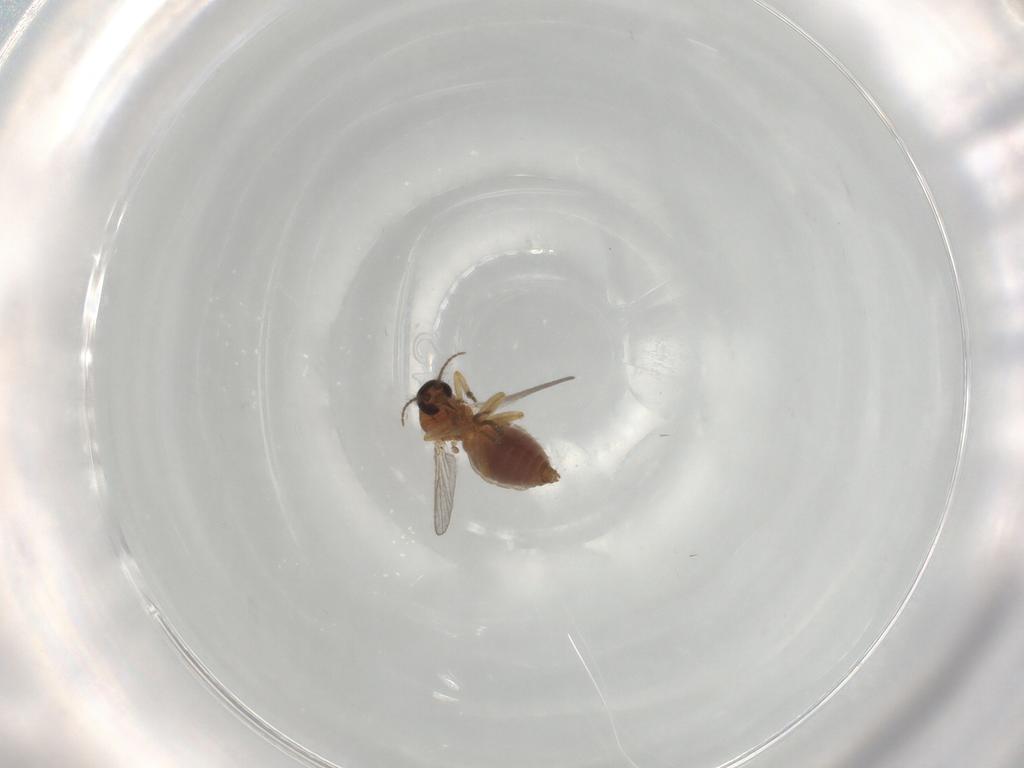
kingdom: Animalia
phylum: Arthropoda
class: Insecta
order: Diptera
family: Ceratopogonidae
